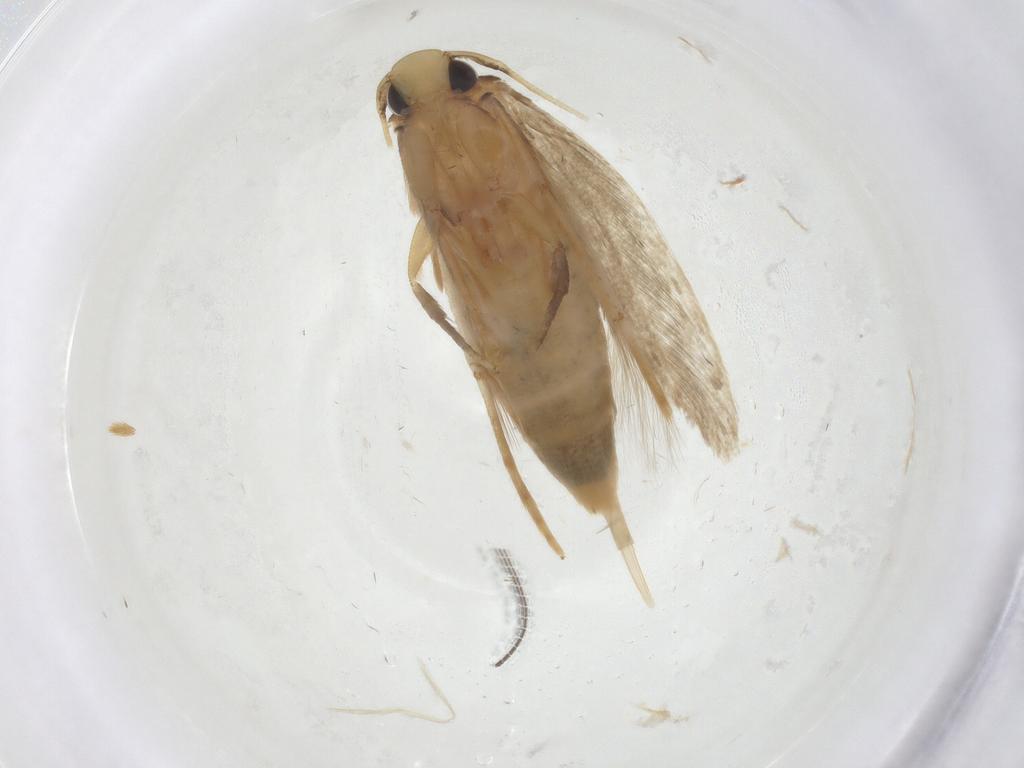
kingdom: Animalia
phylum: Arthropoda
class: Insecta
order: Lepidoptera
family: Tineidae
